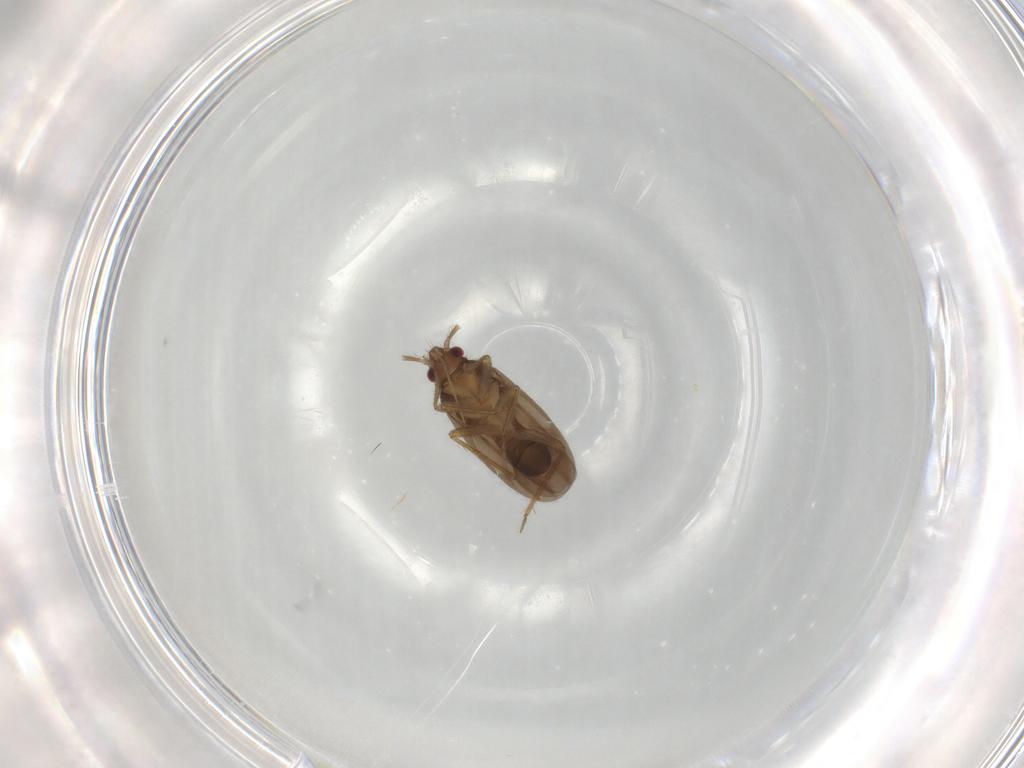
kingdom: Animalia
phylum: Arthropoda
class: Insecta
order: Hemiptera
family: Ceratocombidae
